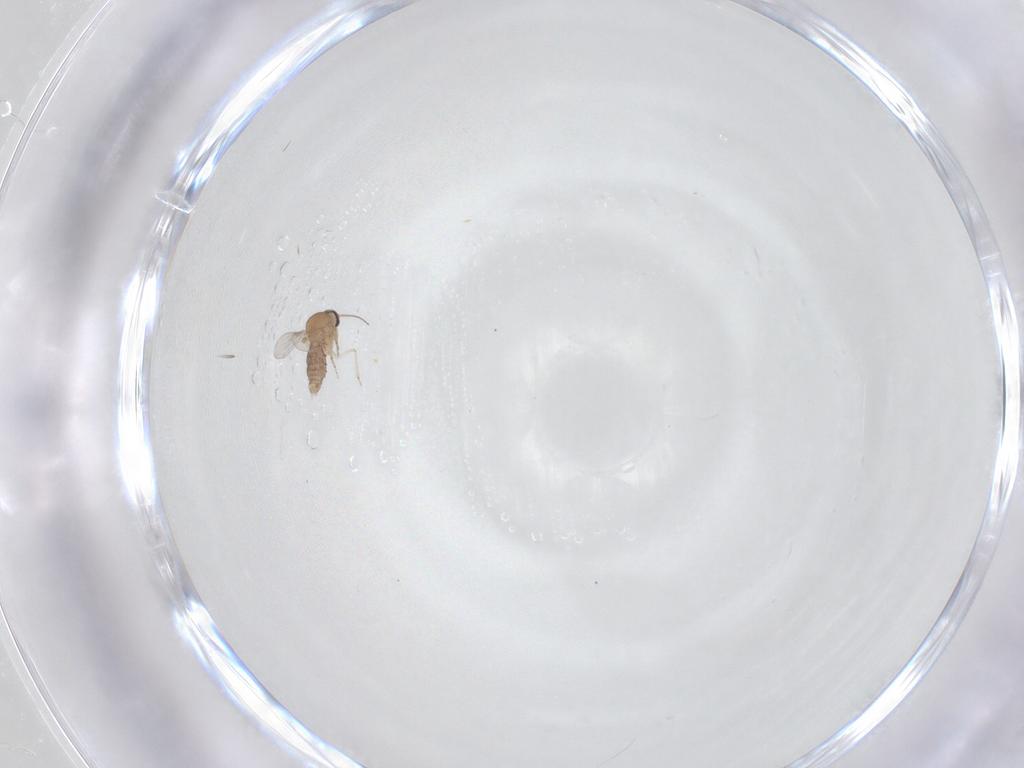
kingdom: Animalia
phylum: Arthropoda
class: Insecta
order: Diptera
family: Ceratopogonidae
